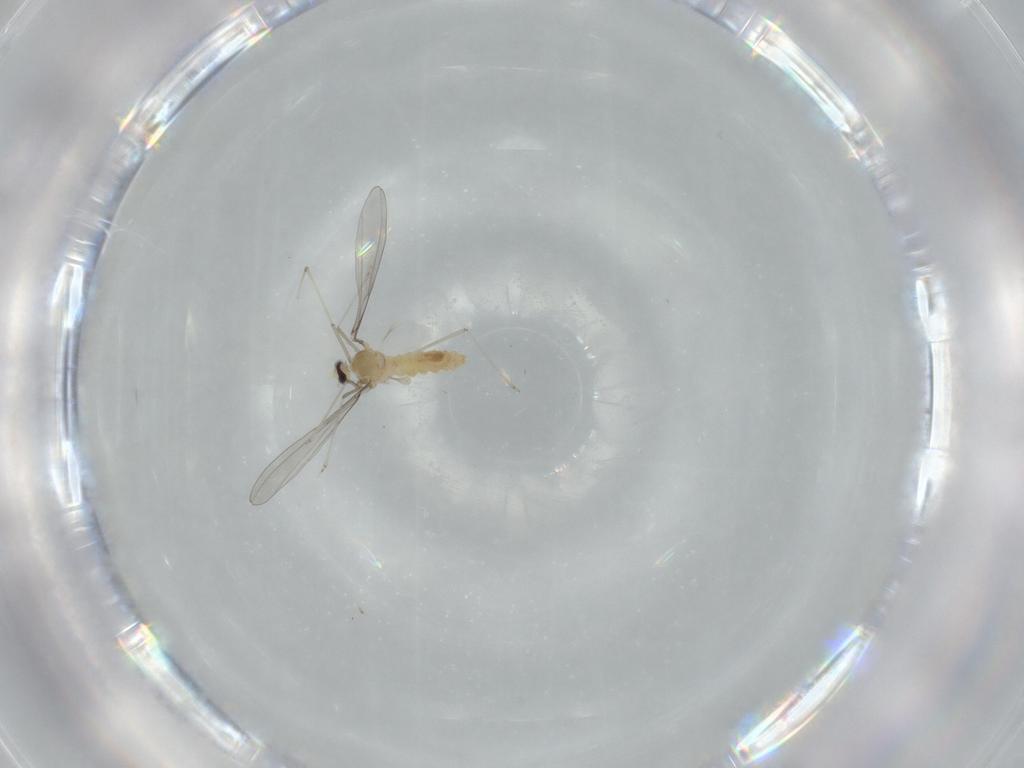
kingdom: Animalia
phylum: Arthropoda
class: Insecta
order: Diptera
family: Cecidomyiidae
